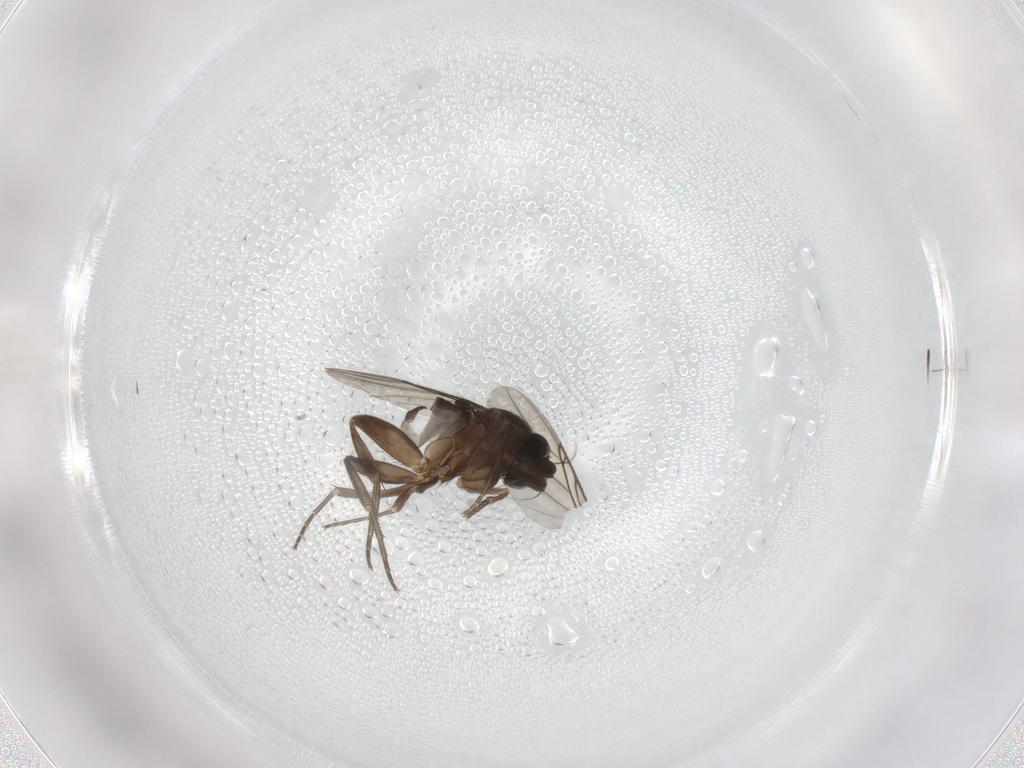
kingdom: Animalia
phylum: Arthropoda
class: Insecta
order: Diptera
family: Phoridae
